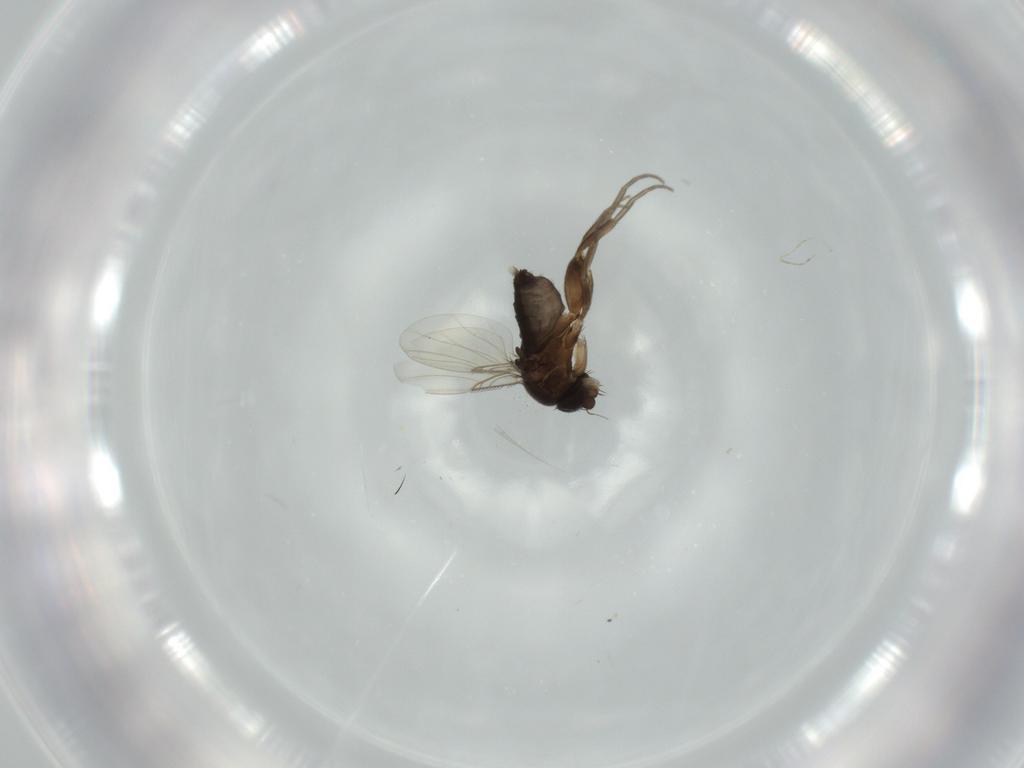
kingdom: Animalia
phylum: Arthropoda
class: Insecta
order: Diptera
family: Phoridae
